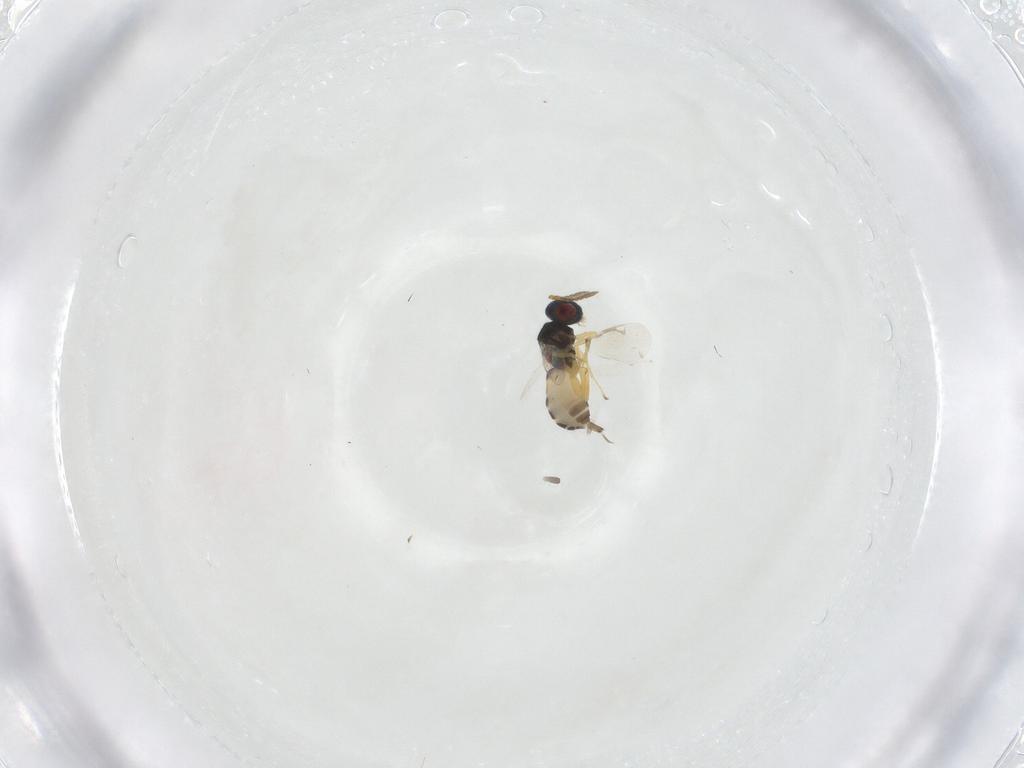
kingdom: Animalia
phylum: Arthropoda
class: Insecta
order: Hymenoptera
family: Pteromalidae
